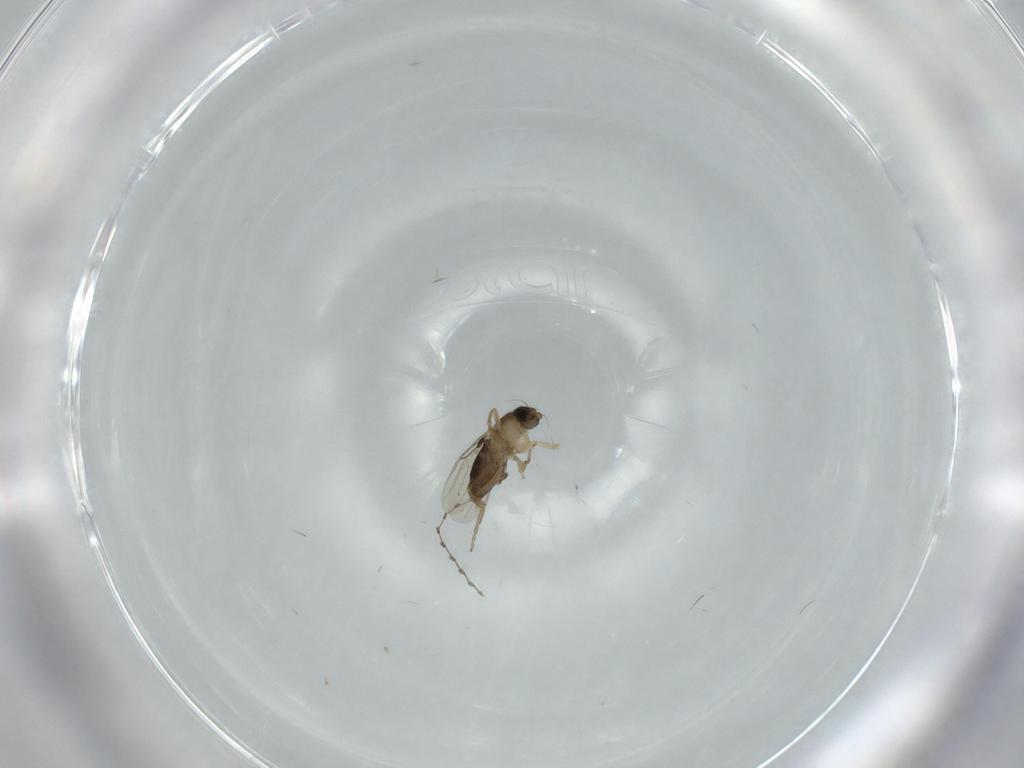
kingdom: Animalia
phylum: Arthropoda
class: Insecta
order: Diptera
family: Phoridae
